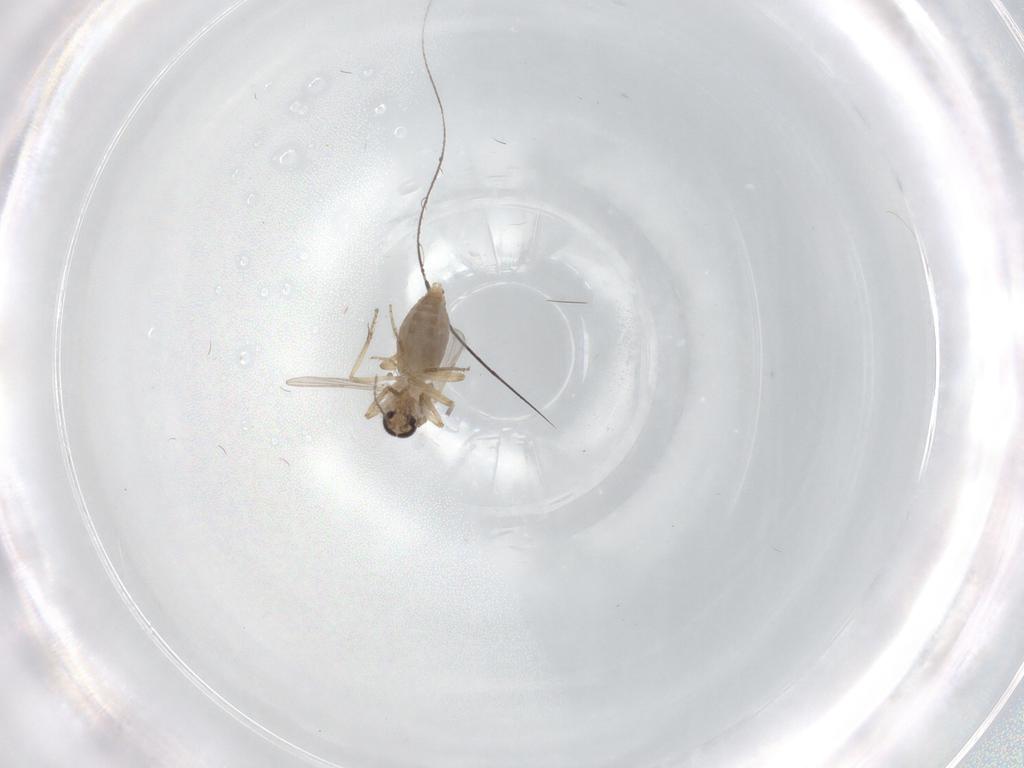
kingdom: Animalia
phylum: Arthropoda
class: Insecta
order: Diptera
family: Ceratopogonidae
